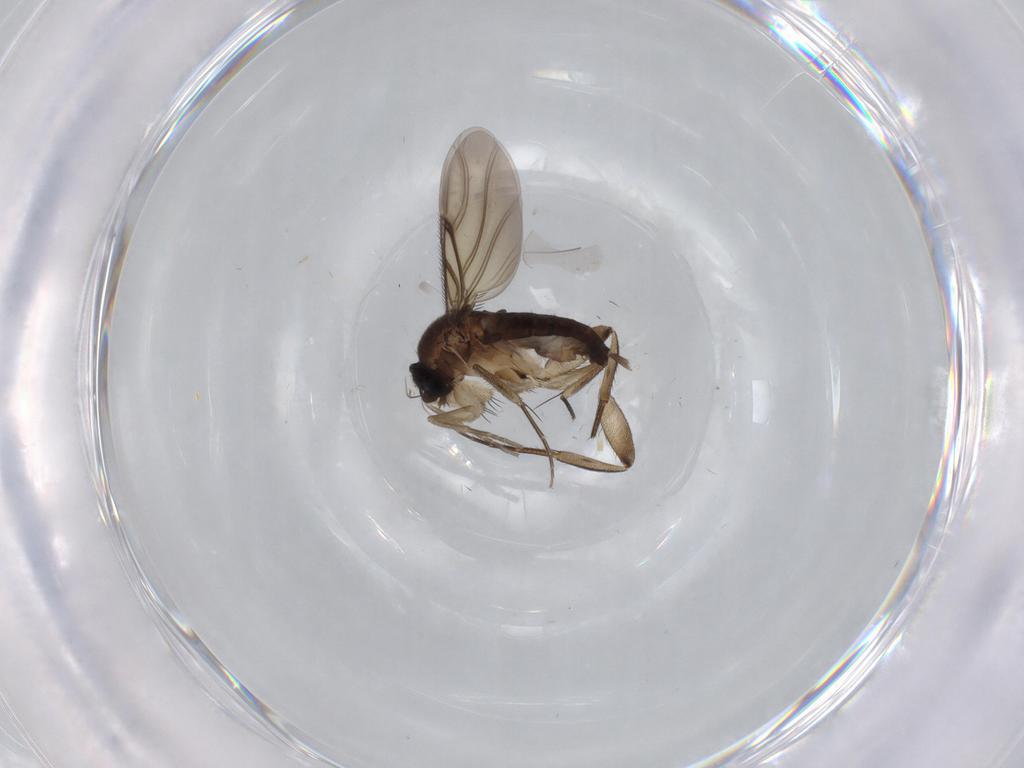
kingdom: Animalia
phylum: Arthropoda
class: Insecta
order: Diptera
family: Phoridae
